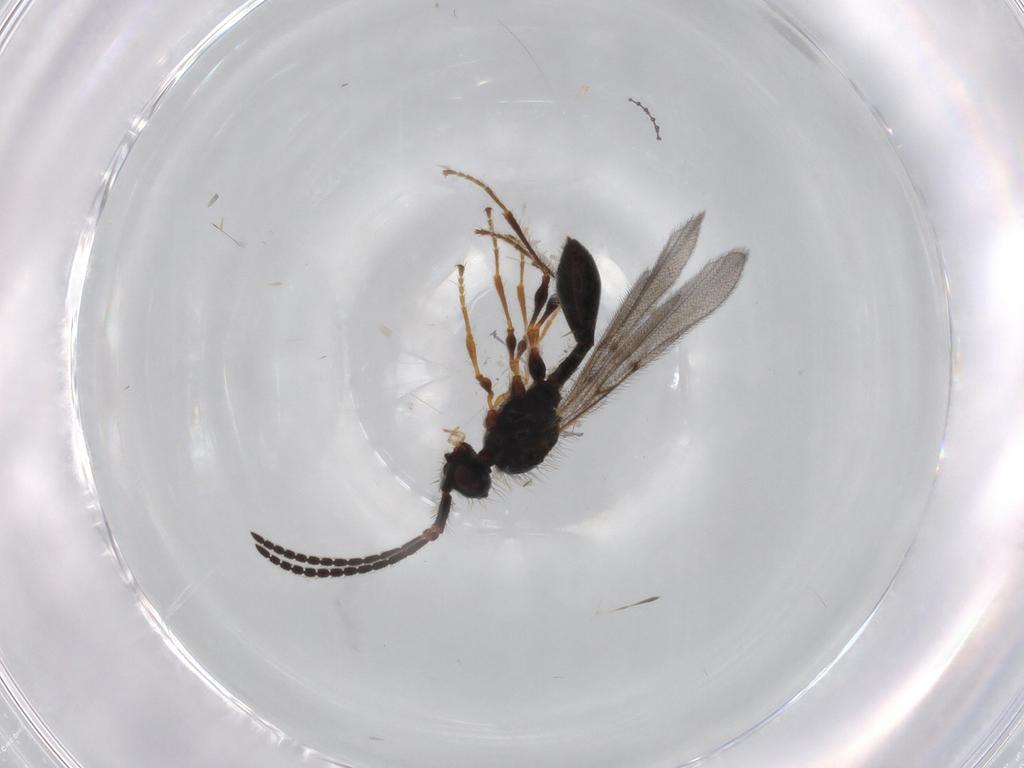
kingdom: Animalia
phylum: Arthropoda
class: Insecta
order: Hymenoptera
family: Diapriidae
